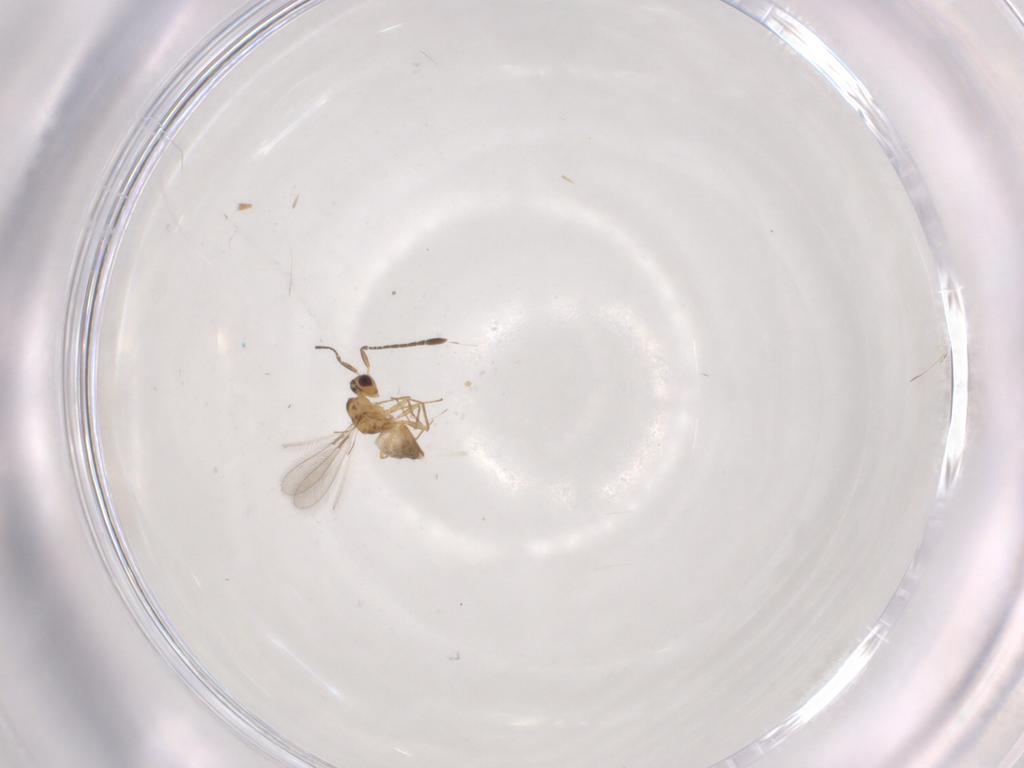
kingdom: Animalia
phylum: Arthropoda
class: Insecta
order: Hymenoptera
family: Mymaridae
